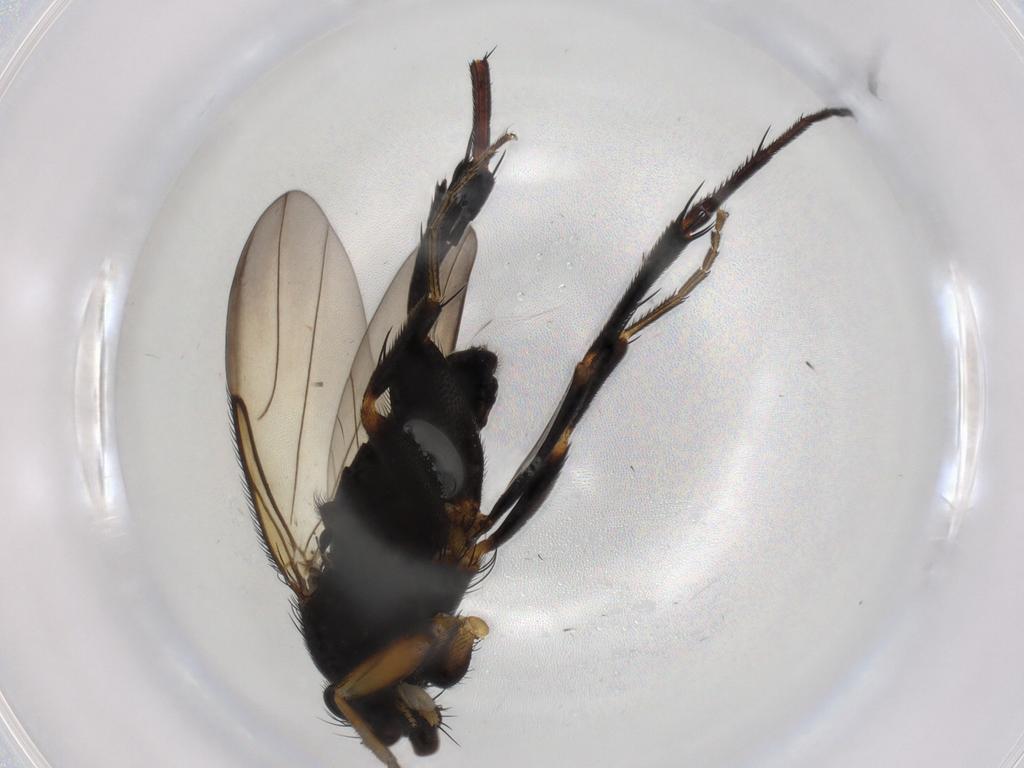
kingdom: Animalia
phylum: Arthropoda
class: Insecta
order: Diptera
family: Phoridae
